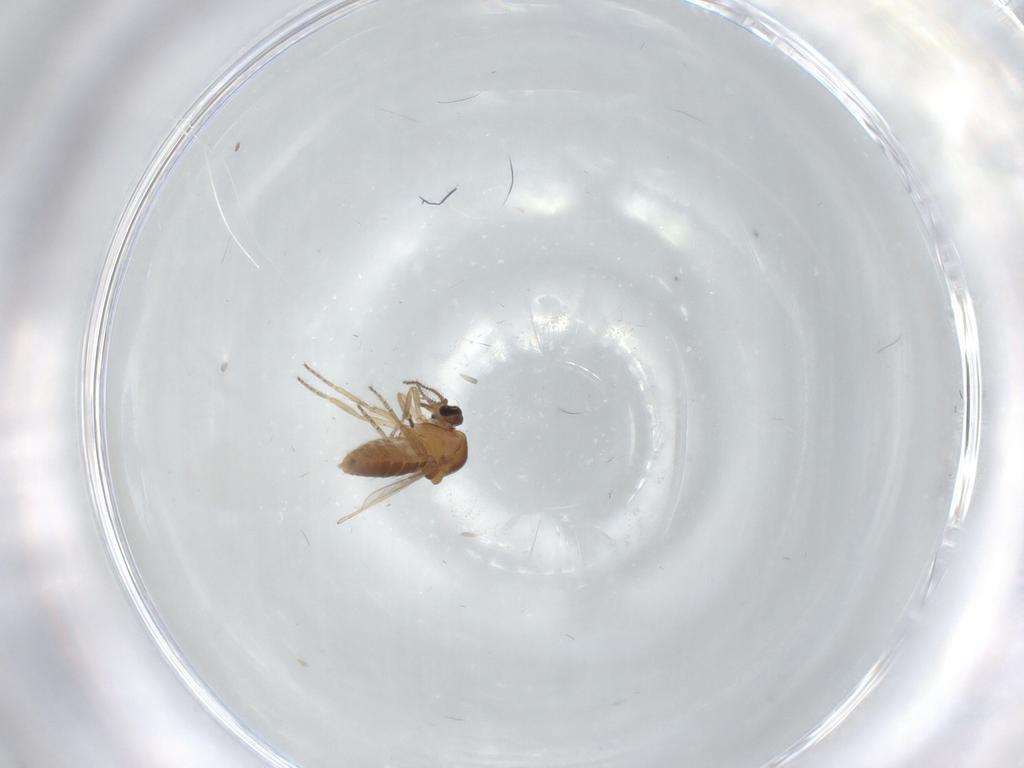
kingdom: Animalia
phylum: Arthropoda
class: Insecta
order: Diptera
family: Ceratopogonidae
